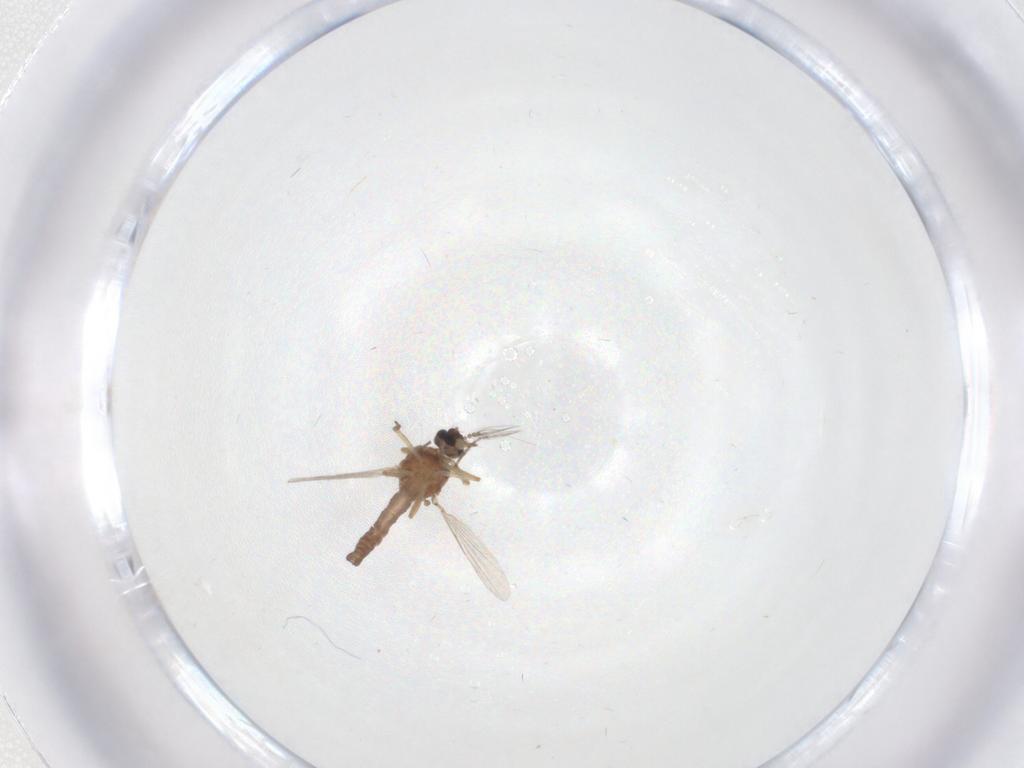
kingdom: Animalia
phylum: Arthropoda
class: Insecta
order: Diptera
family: Ceratopogonidae
